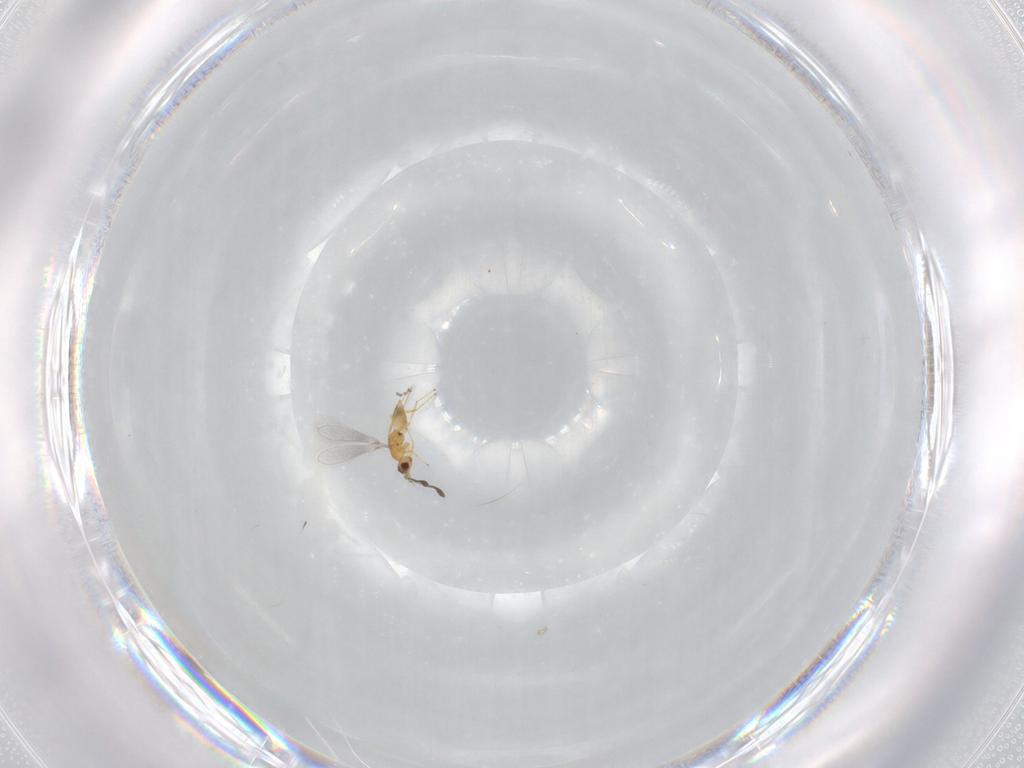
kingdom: Animalia
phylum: Arthropoda
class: Insecta
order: Hymenoptera
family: Mymaridae
